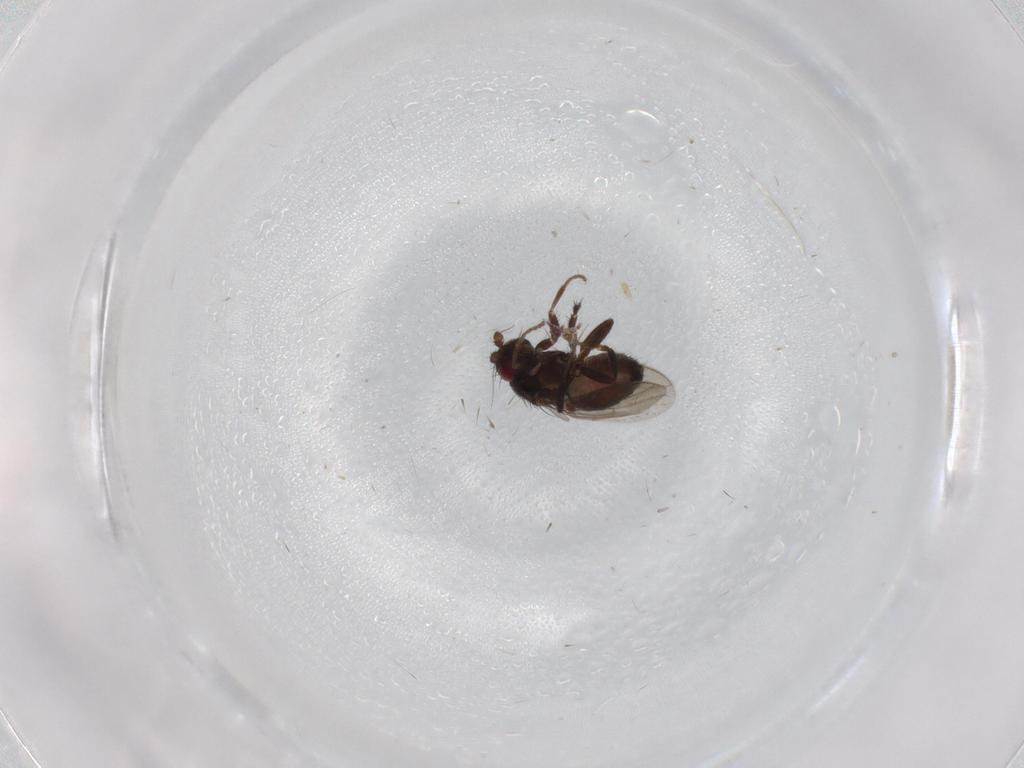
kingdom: Animalia
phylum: Arthropoda
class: Insecta
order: Diptera
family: Sphaeroceridae
